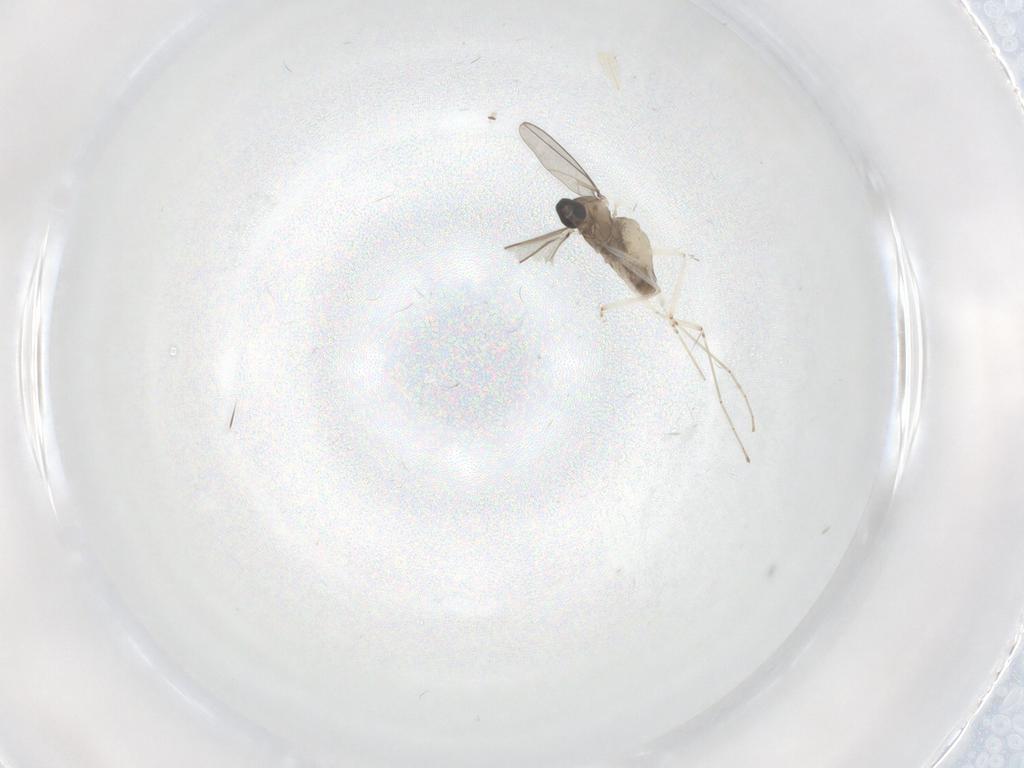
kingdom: Animalia
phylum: Arthropoda
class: Insecta
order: Diptera
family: Cecidomyiidae
